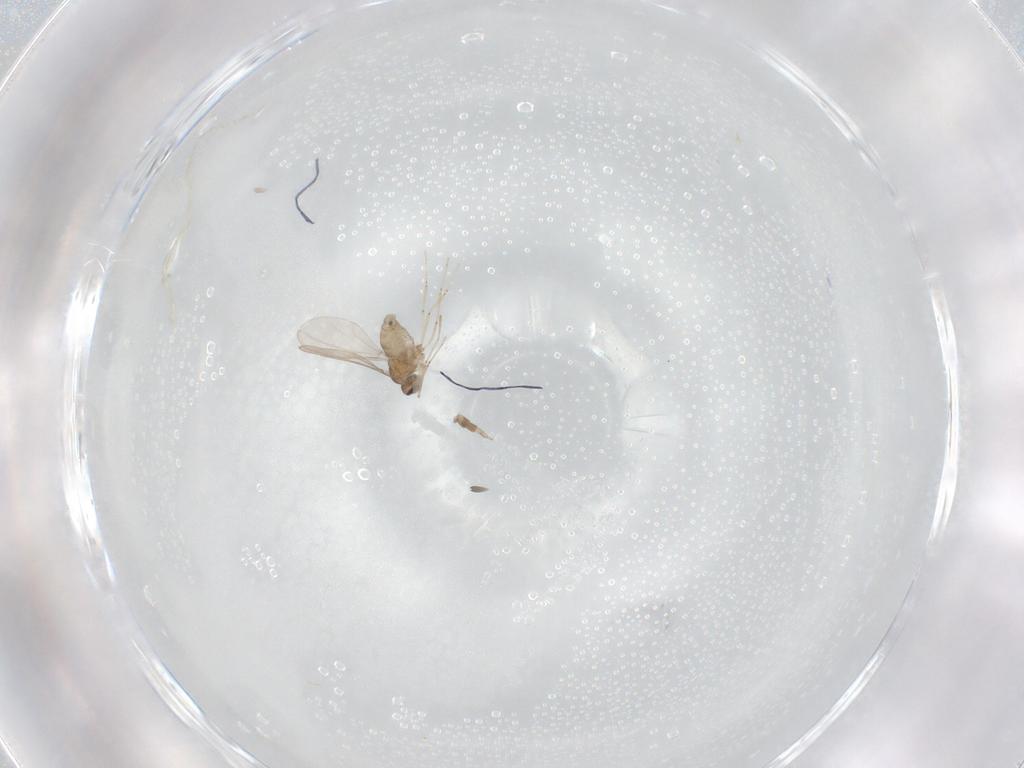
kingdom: Animalia
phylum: Arthropoda
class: Insecta
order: Diptera
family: Cecidomyiidae
